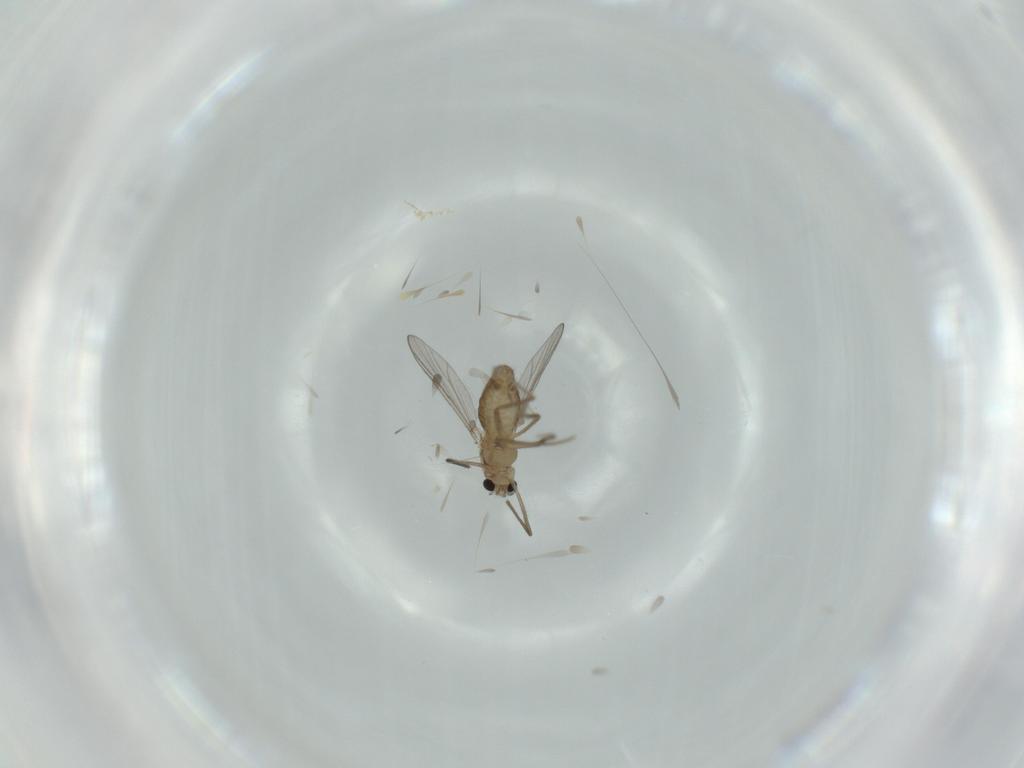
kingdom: Animalia
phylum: Arthropoda
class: Insecta
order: Diptera
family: Chironomidae
